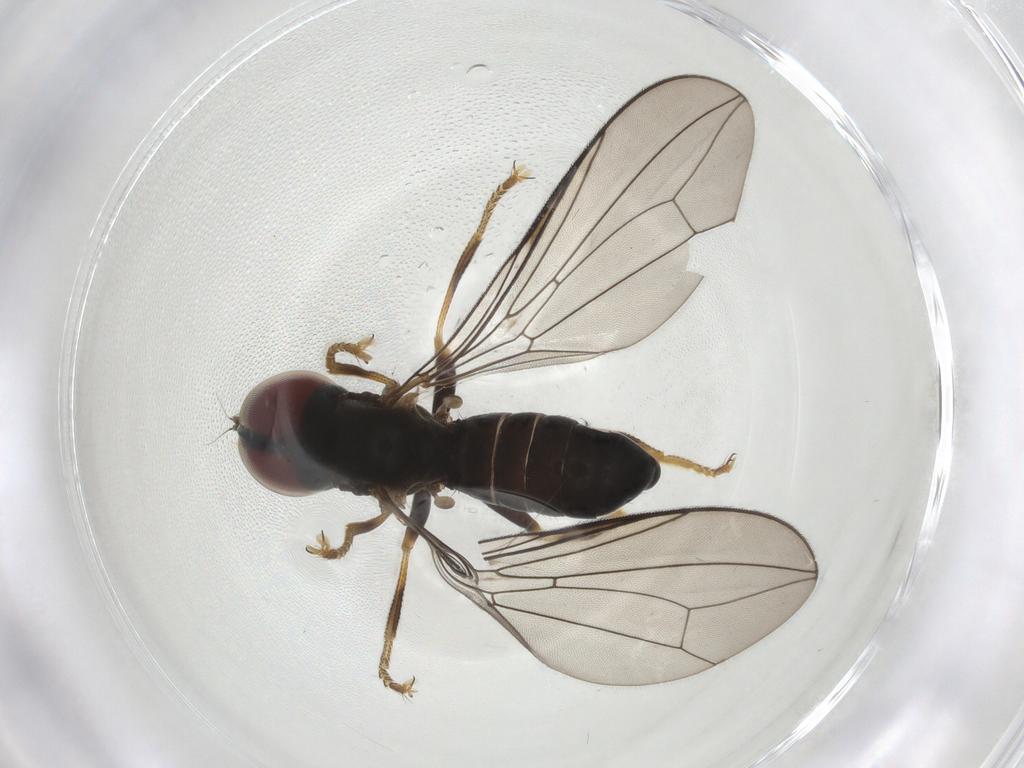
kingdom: Animalia
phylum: Arthropoda
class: Insecta
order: Diptera
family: Pipunculidae
